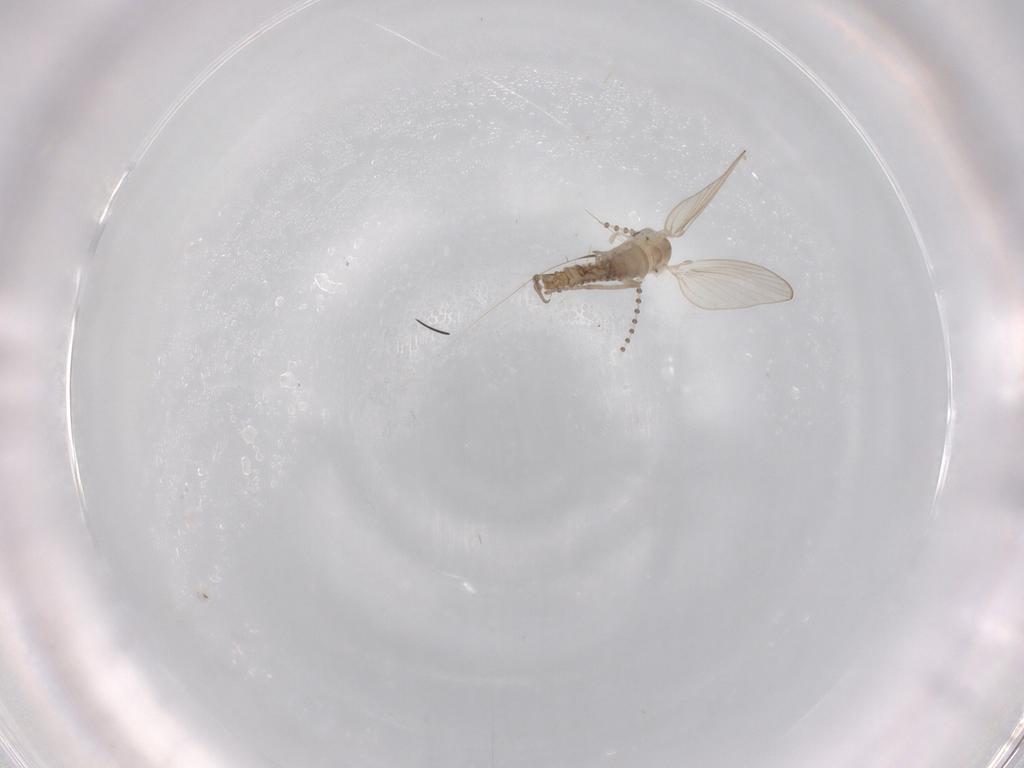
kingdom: Animalia
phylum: Arthropoda
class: Insecta
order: Diptera
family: Psychodidae
